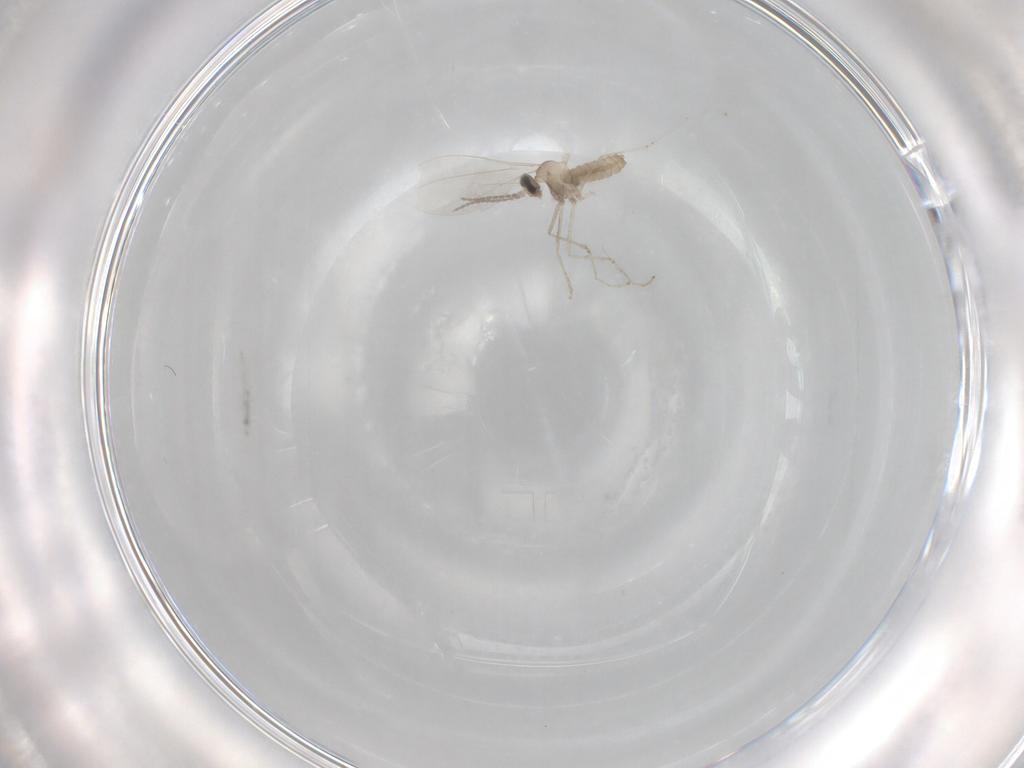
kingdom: Animalia
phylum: Arthropoda
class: Insecta
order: Diptera
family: Cecidomyiidae
